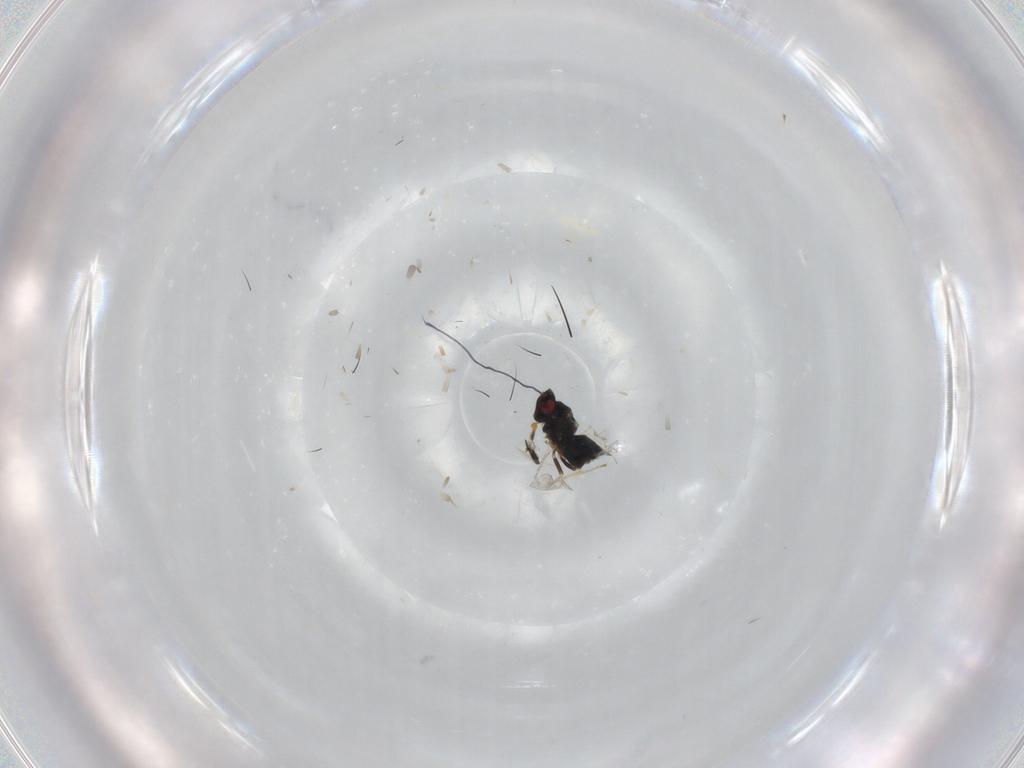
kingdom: Animalia
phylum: Arthropoda
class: Insecta
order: Hymenoptera
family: Eulophidae
